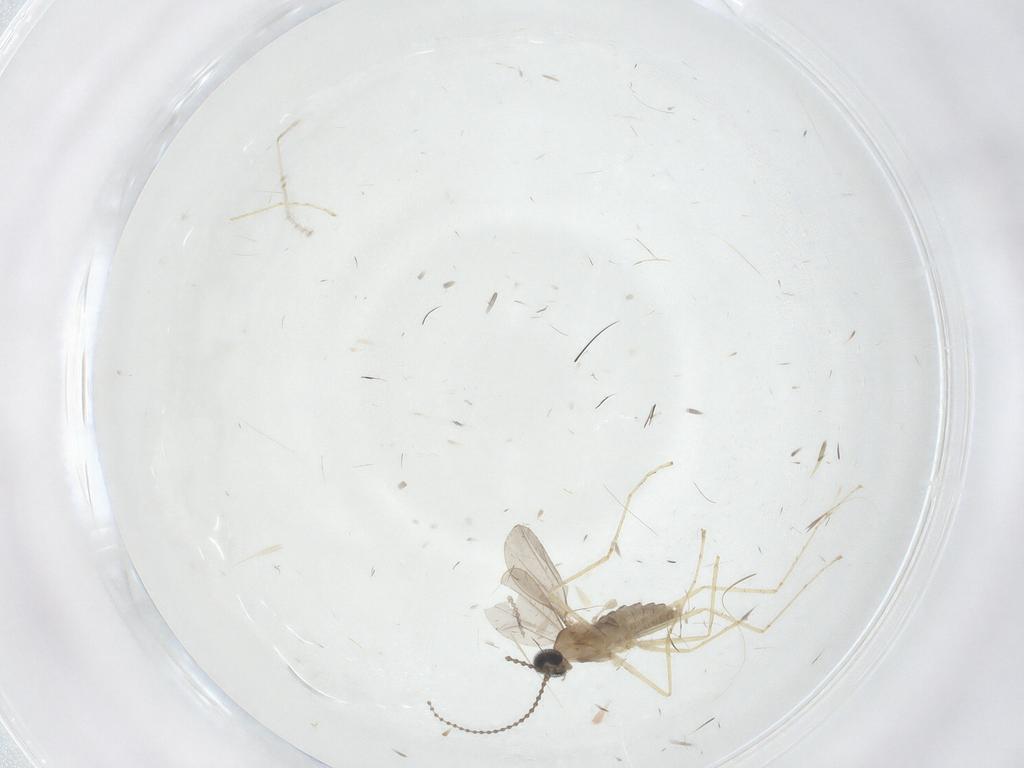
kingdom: Animalia
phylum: Arthropoda
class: Insecta
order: Diptera
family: Cecidomyiidae
